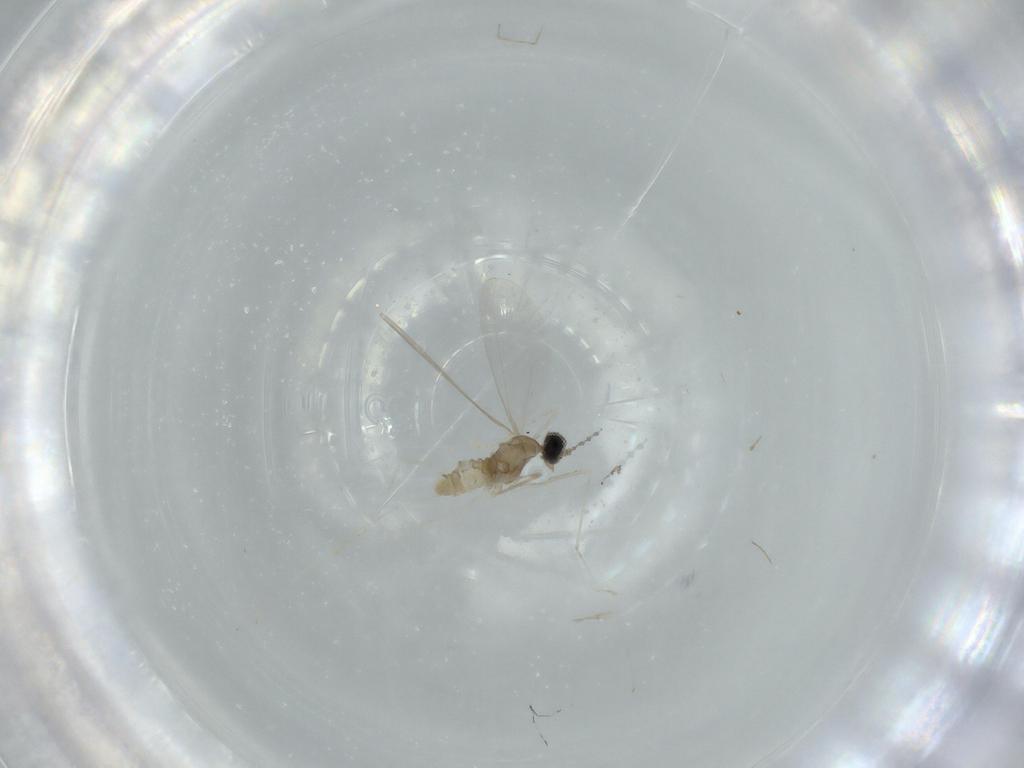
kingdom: Animalia
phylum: Arthropoda
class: Insecta
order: Diptera
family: Cecidomyiidae
